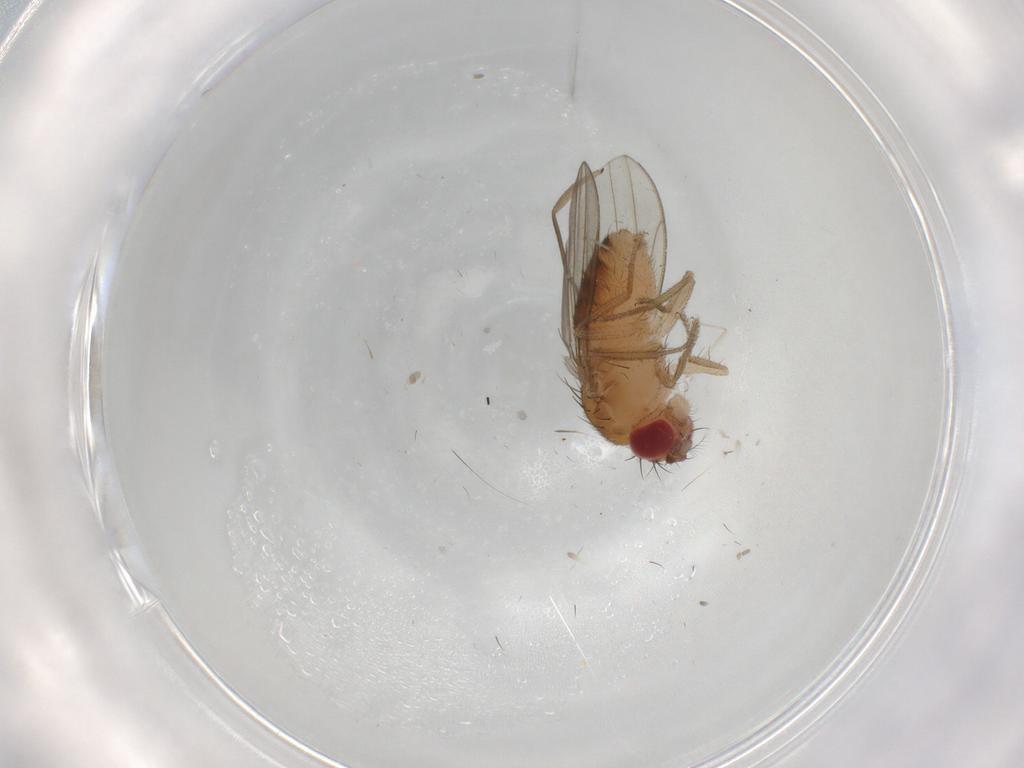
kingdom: Animalia
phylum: Arthropoda
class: Insecta
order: Diptera
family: Drosophilidae
